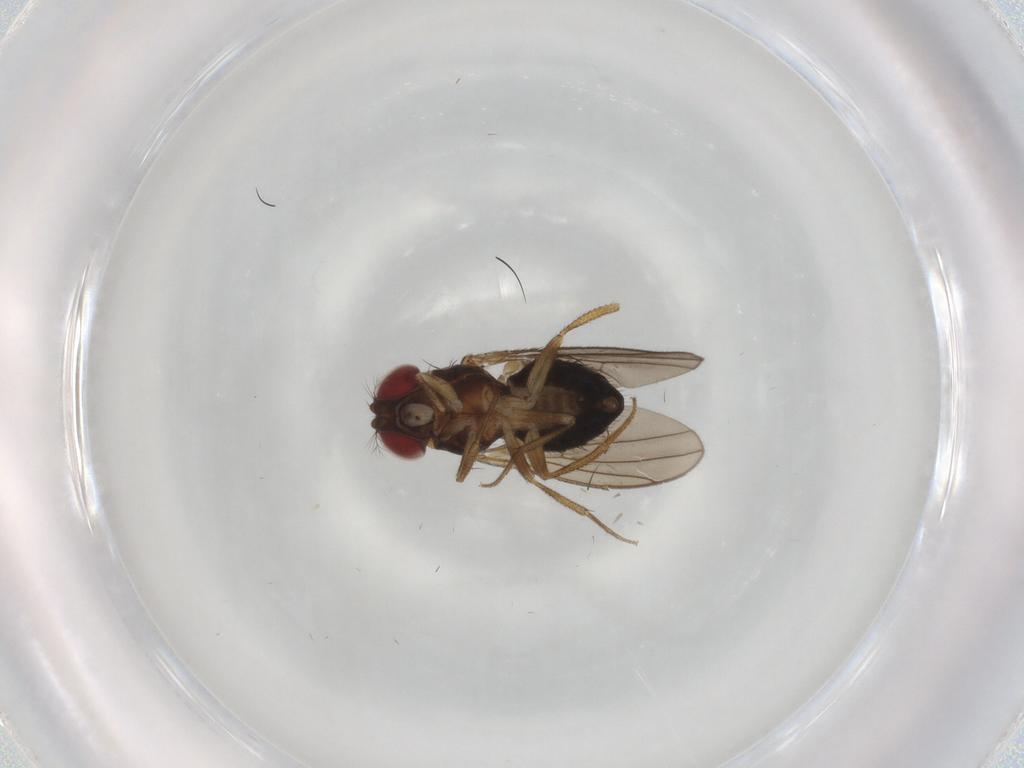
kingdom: Animalia
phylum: Arthropoda
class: Insecta
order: Diptera
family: Drosophilidae
